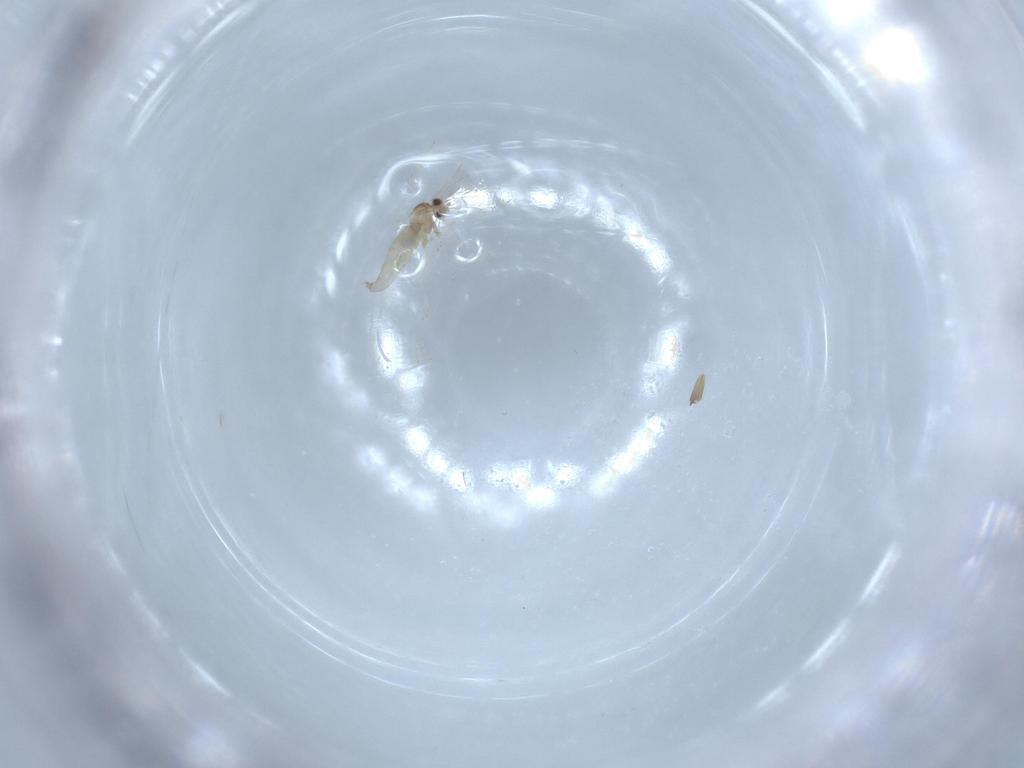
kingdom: Animalia
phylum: Arthropoda
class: Insecta
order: Diptera
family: Cecidomyiidae
